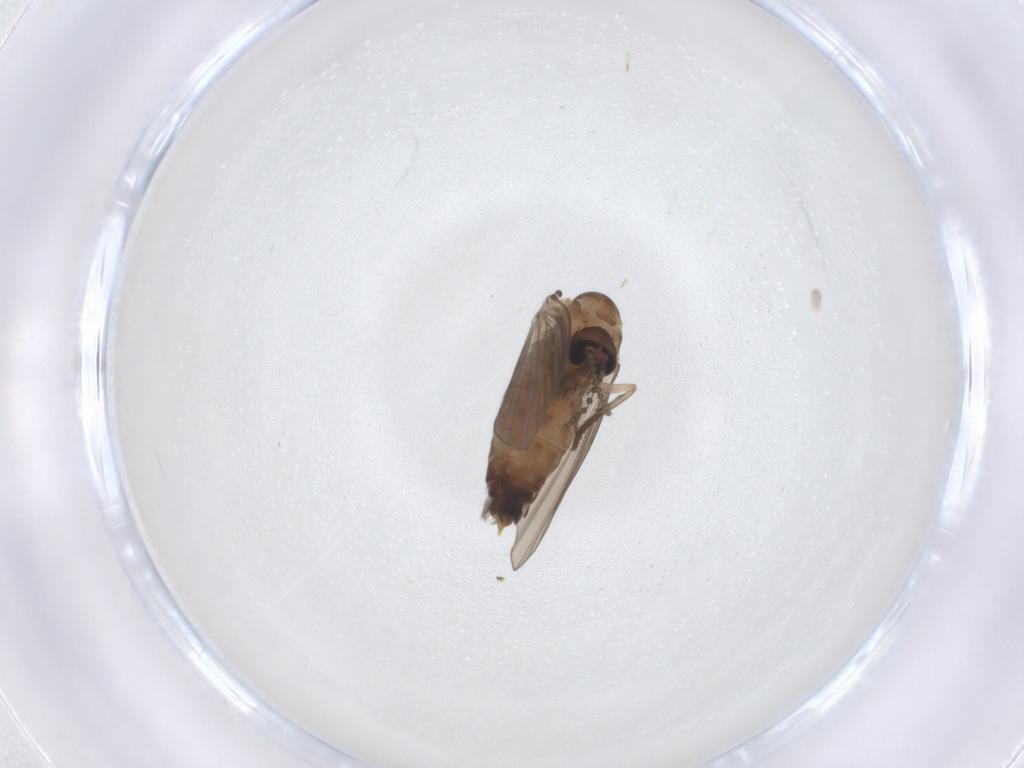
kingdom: Animalia
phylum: Arthropoda
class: Insecta
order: Diptera
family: Psychodidae
